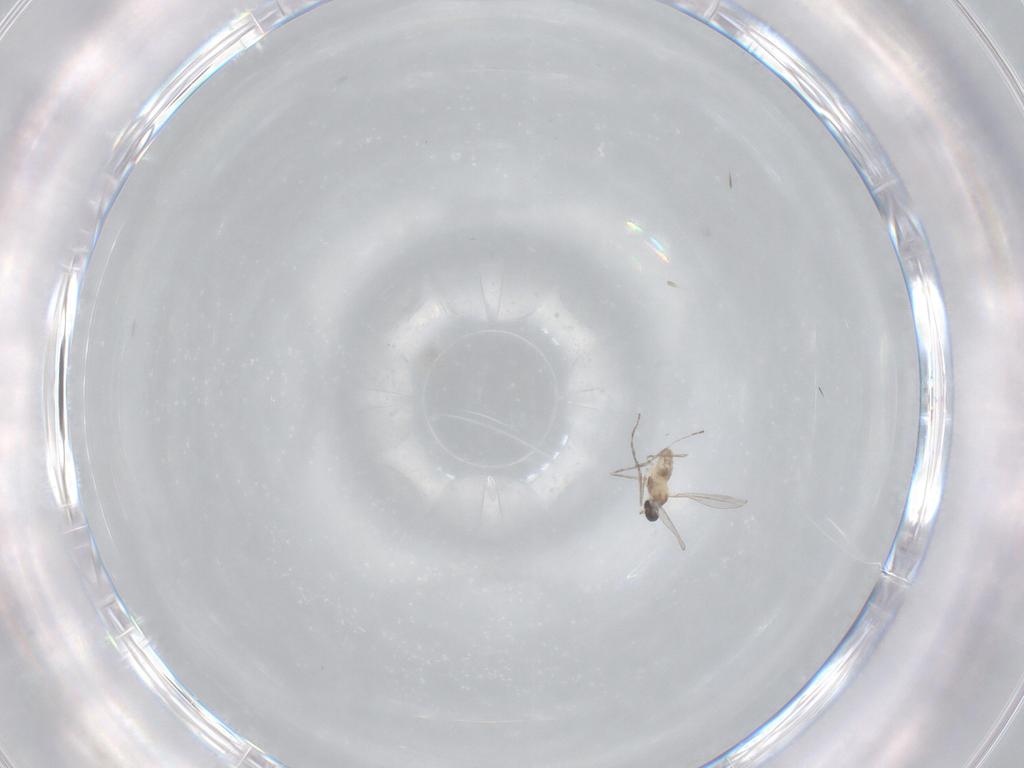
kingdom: Animalia
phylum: Arthropoda
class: Insecta
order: Diptera
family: Cecidomyiidae
